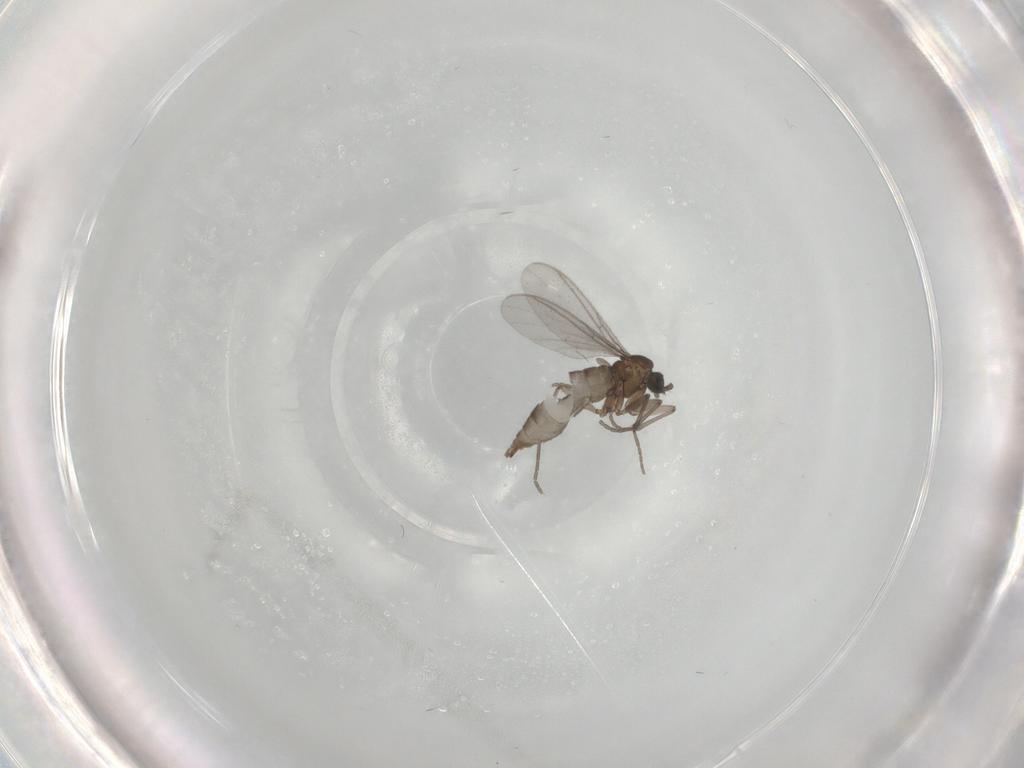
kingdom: Animalia
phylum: Arthropoda
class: Insecta
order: Diptera
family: Sciaridae
